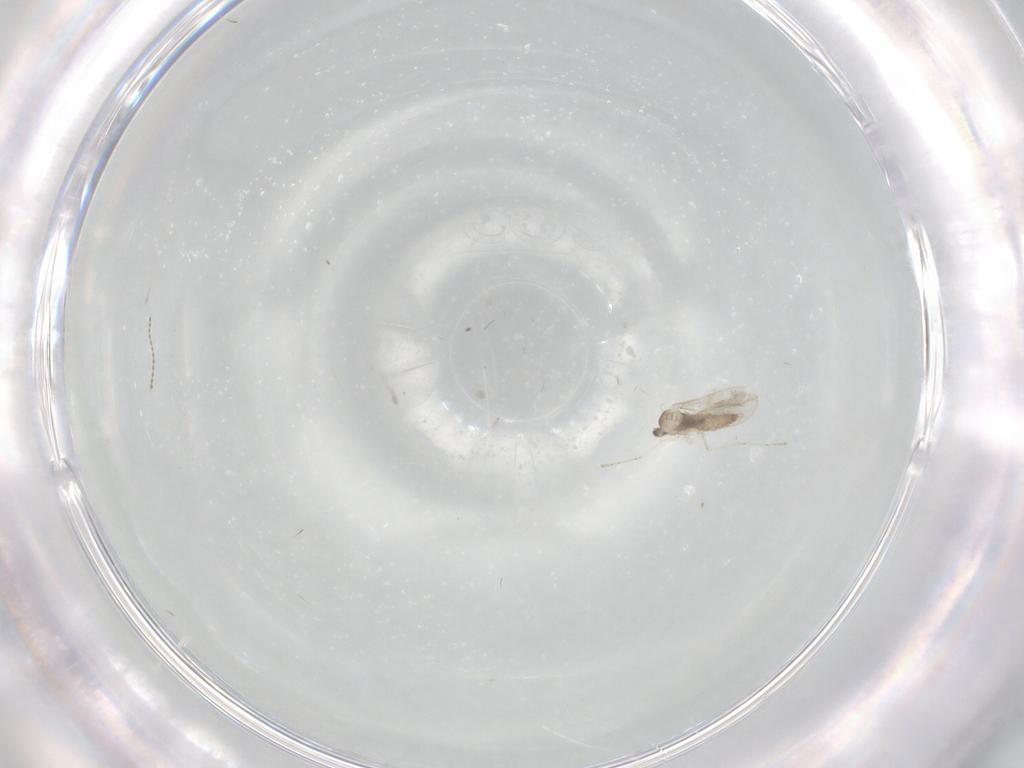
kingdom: Animalia
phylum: Arthropoda
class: Insecta
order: Diptera
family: Cecidomyiidae
